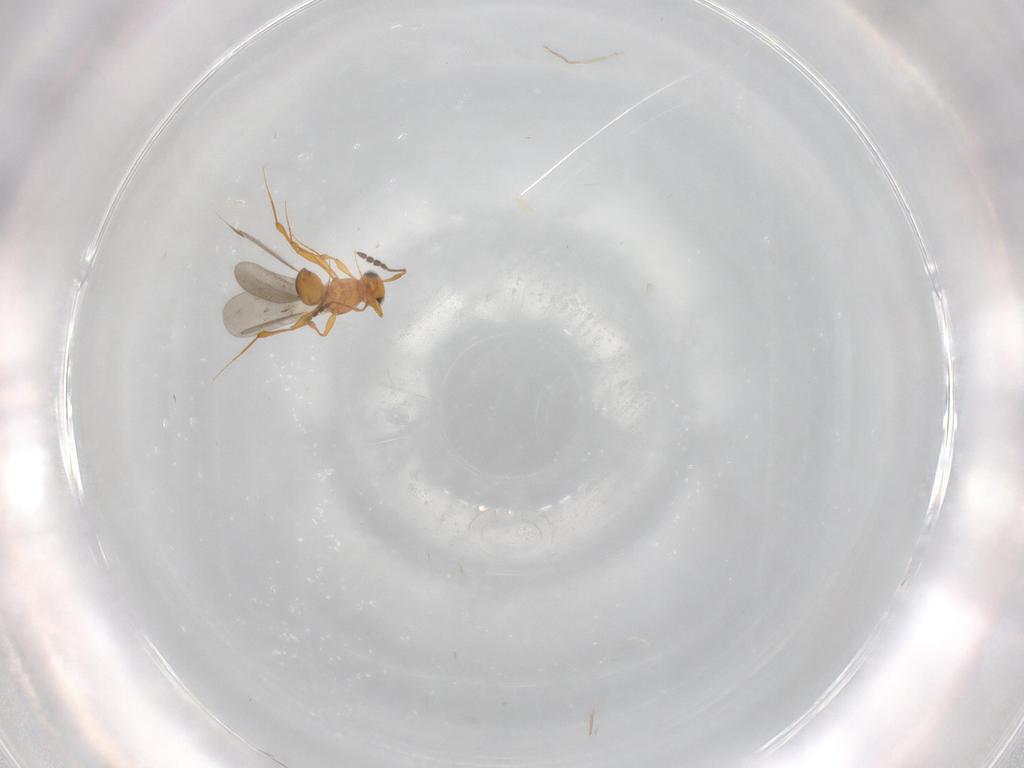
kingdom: Animalia
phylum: Arthropoda
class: Insecta
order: Hymenoptera
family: Platygastridae
